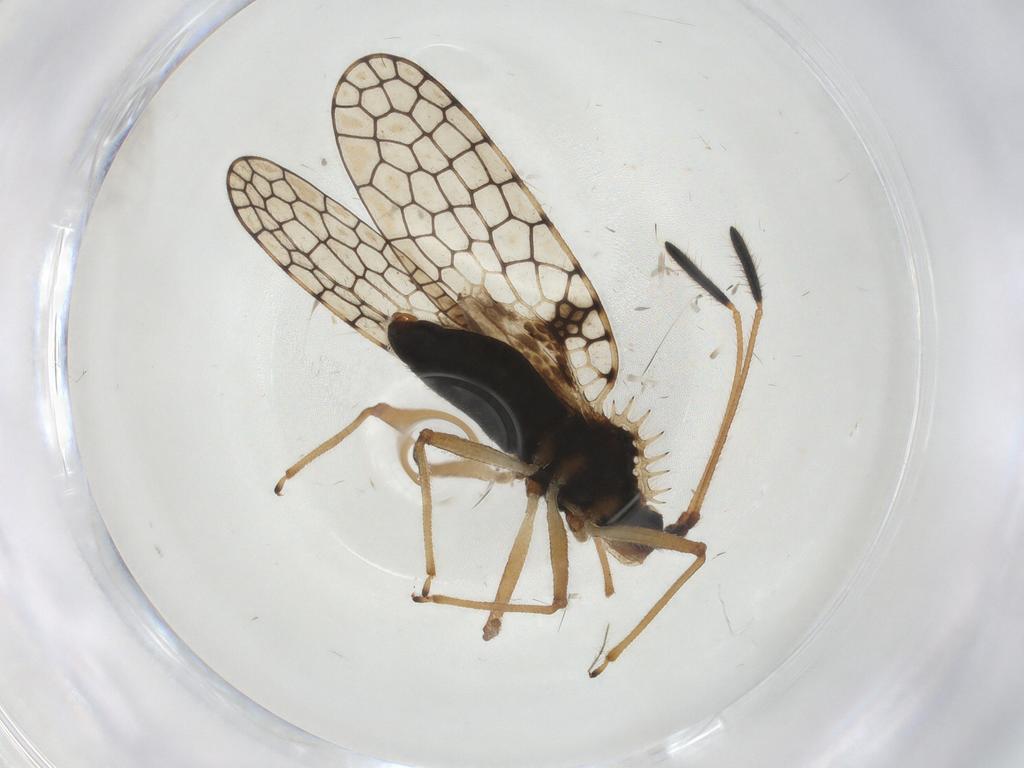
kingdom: Animalia
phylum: Arthropoda
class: Insecta
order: Hemiptera
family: Tingidae
